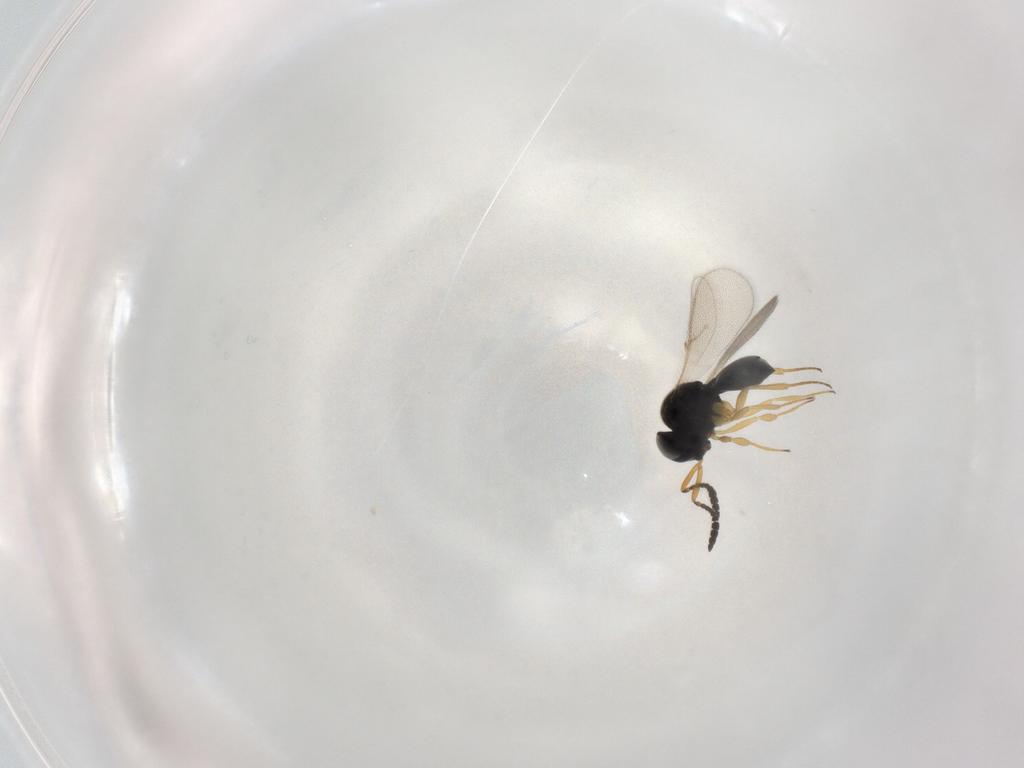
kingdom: Animalia
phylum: Arthropoda
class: Insecta
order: Hymenoptera
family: Scelionidae
